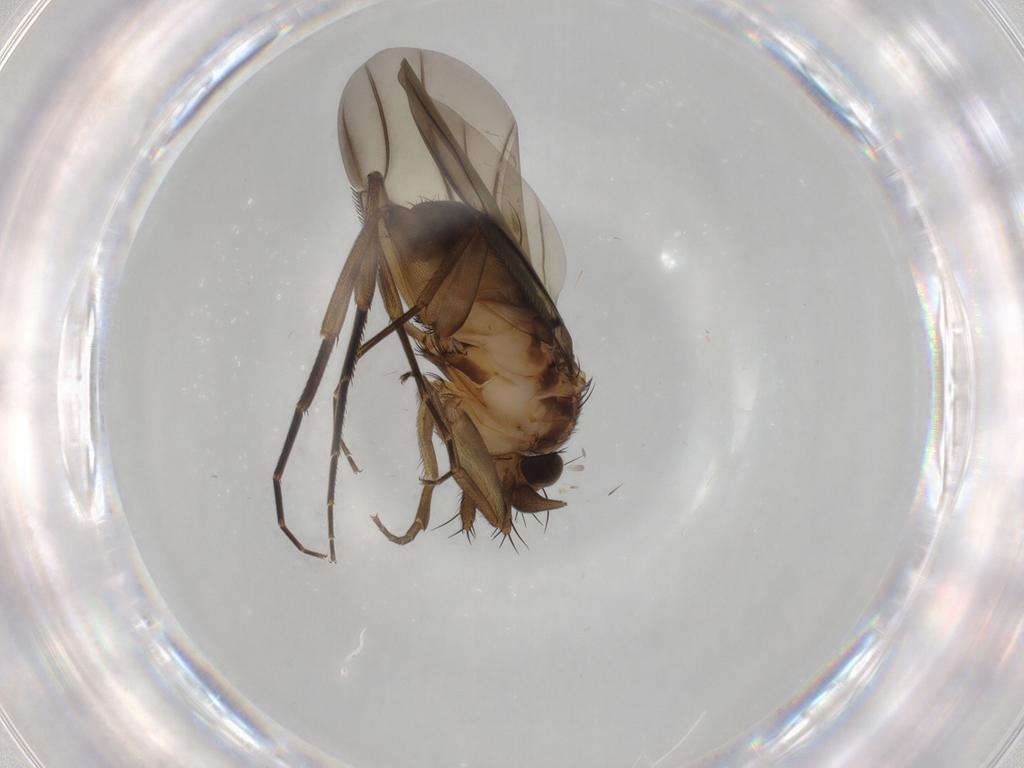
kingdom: Animalia
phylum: Arthropoda
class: Insecta
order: Diptera
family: Phoridae
